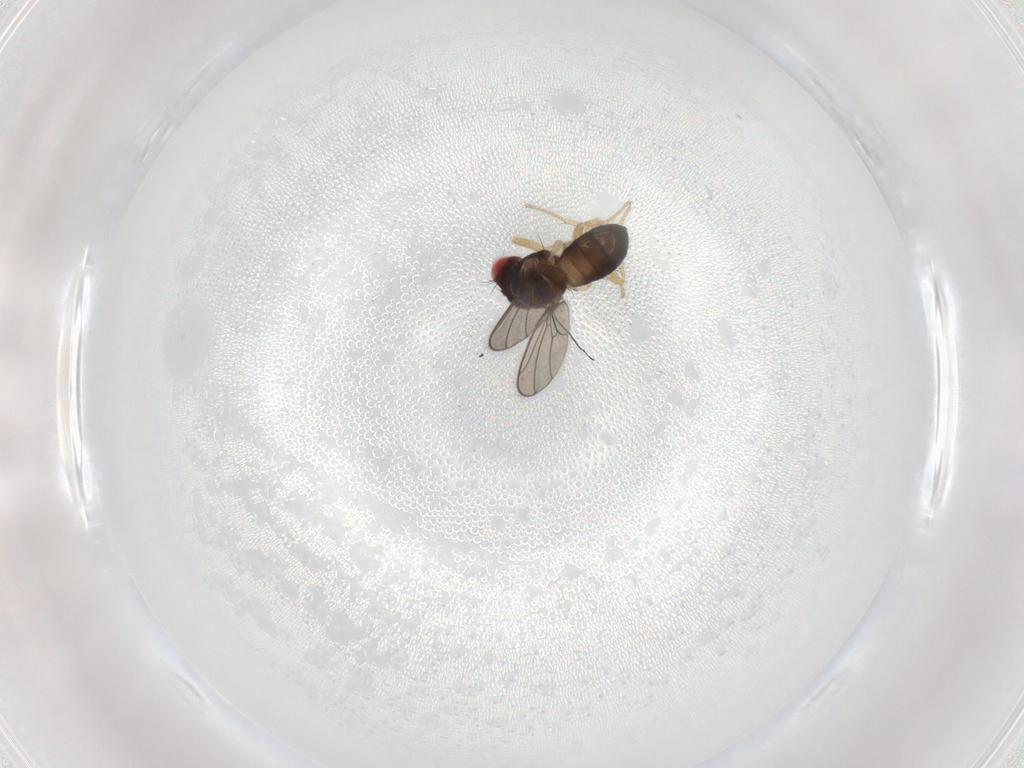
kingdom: Animalia
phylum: Arthropoda
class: Insecta
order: Diptera
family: Drosophilidae
